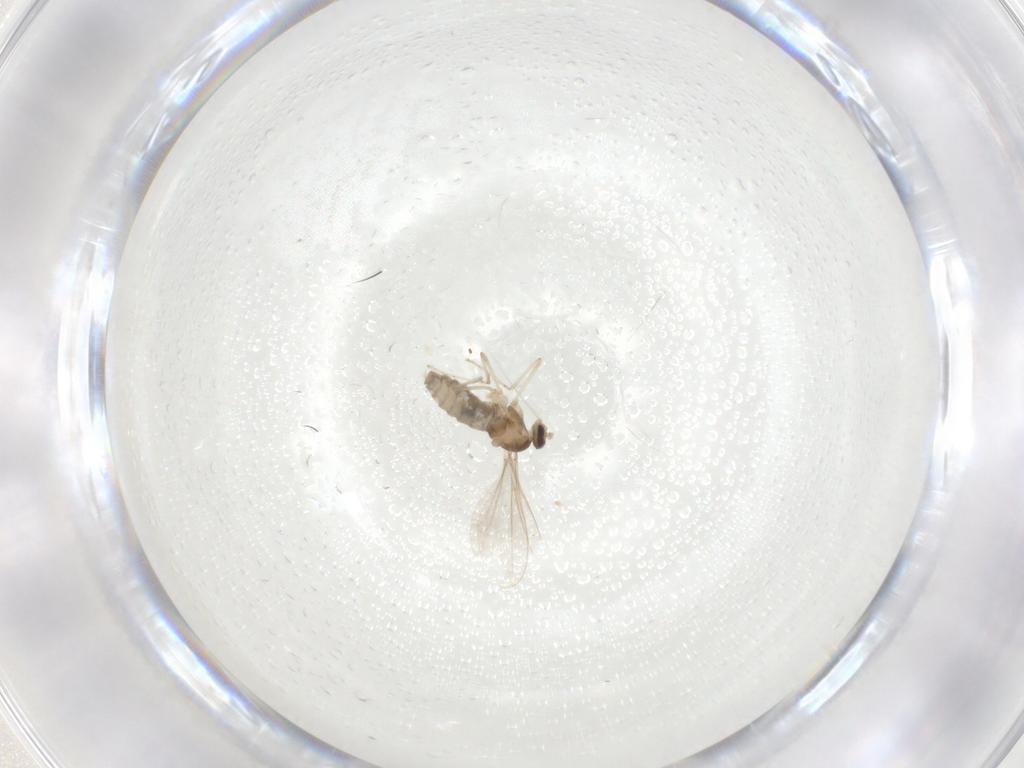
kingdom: Animalia
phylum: Arthropoda
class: Insecta
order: Diptera
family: Cecidomyiidae
